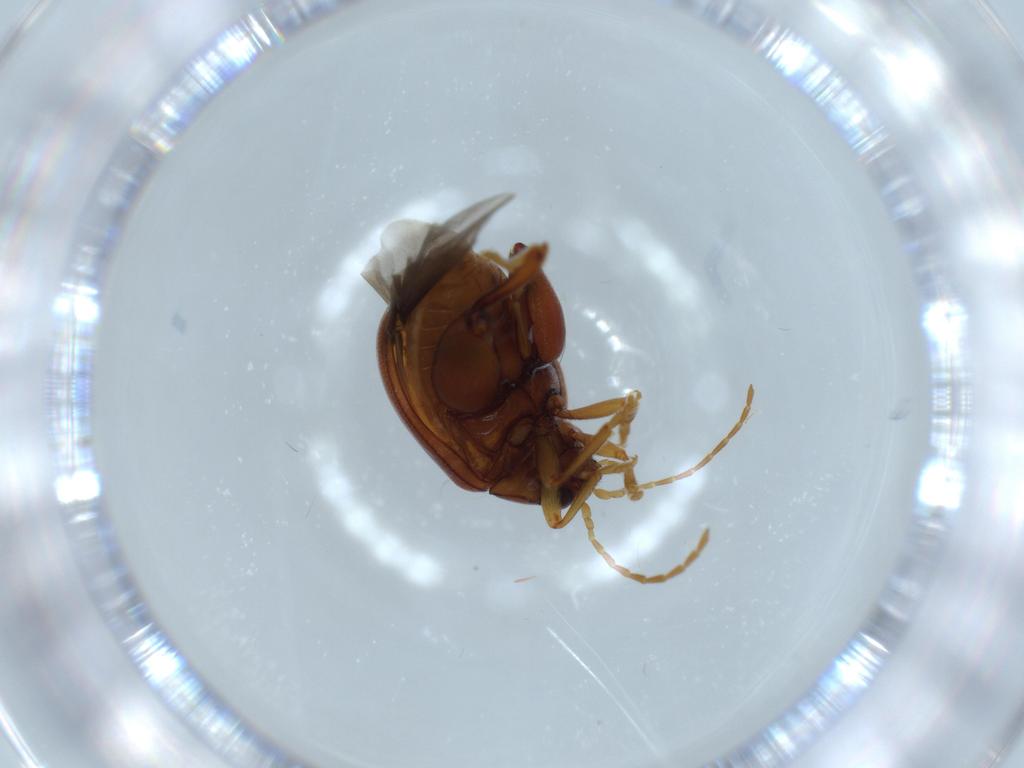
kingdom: Animalia
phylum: Arthropoda
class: Insecta
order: Coleoptera
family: Chrysomelidae
